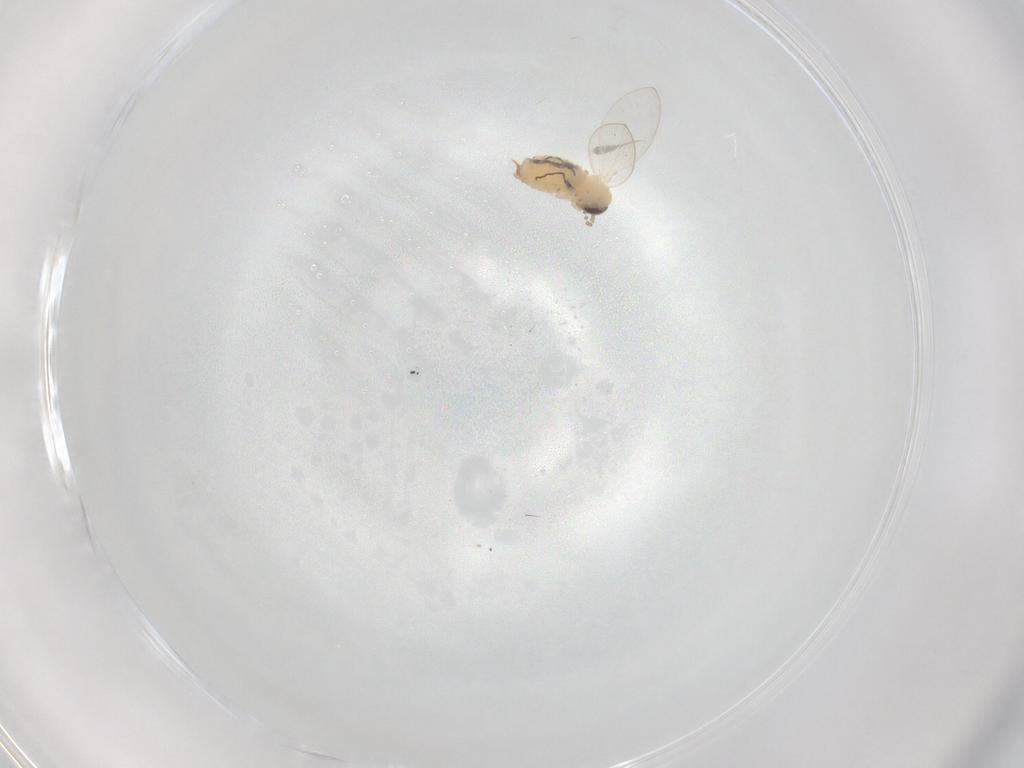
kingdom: Animalia
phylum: Arthropoda
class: Insecta
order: Diptera
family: Psychodidae
